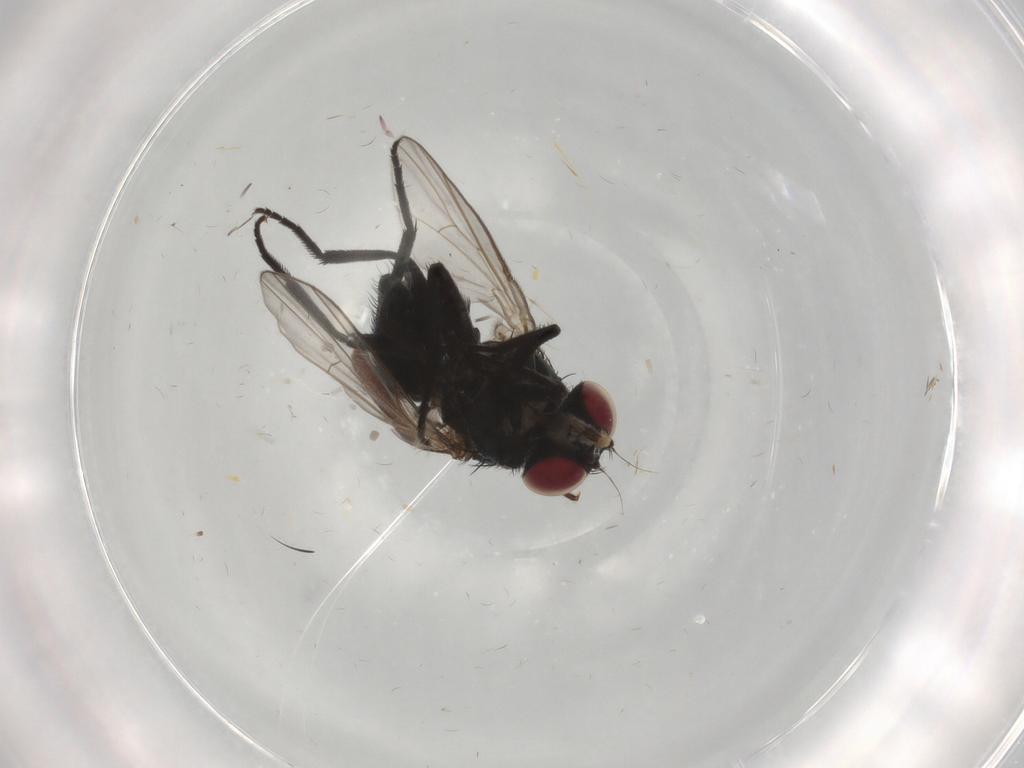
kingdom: Animalia
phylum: Arthropoda
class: Insecta
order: Diptera
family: Agromyzidae
